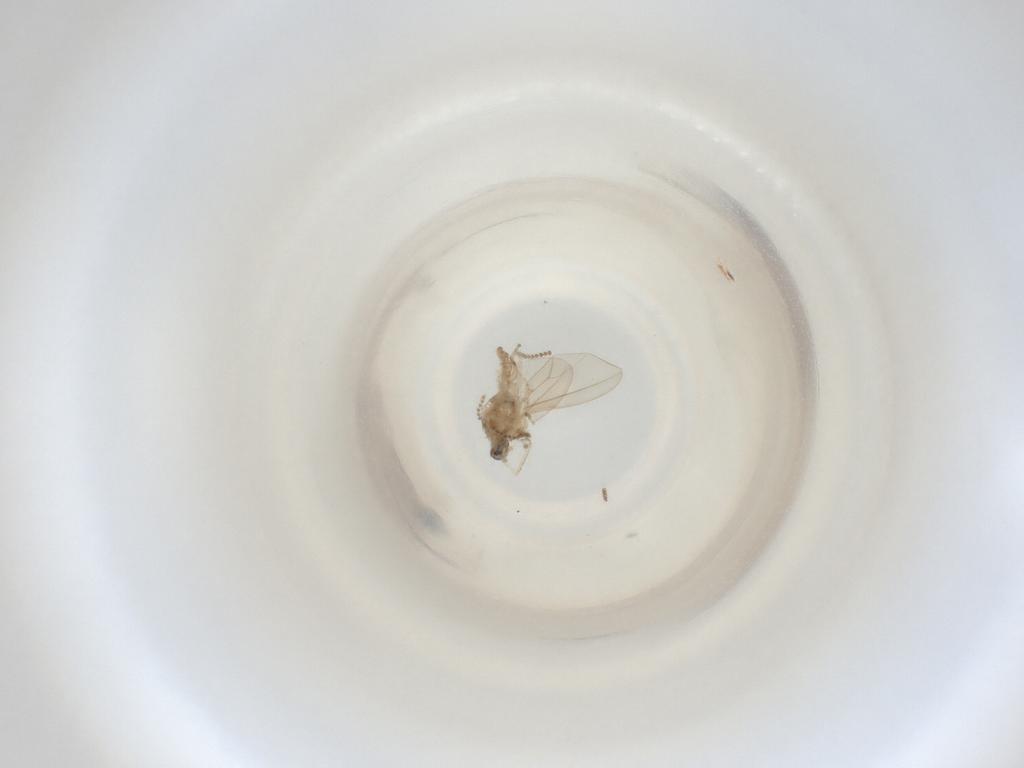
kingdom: Animalia
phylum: Arthropoda
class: Insecta
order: Diptera
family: Cecidomyiidae
